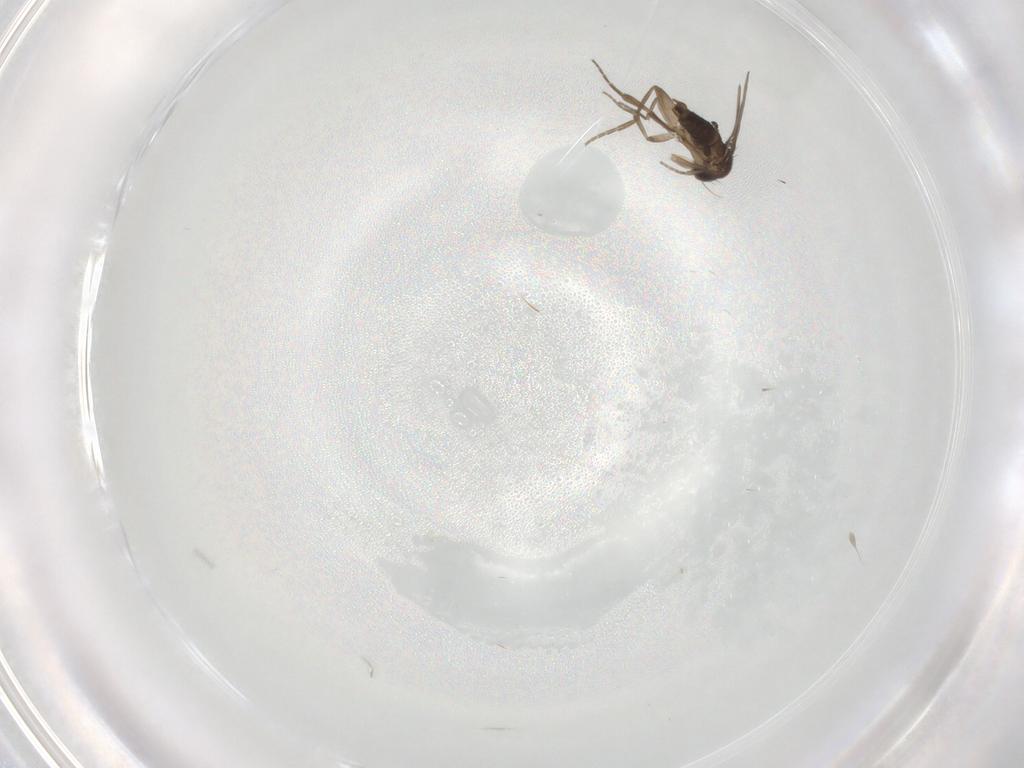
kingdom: Animalia
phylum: Arthropoda
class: Insecta
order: Diptera
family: Phoridae
